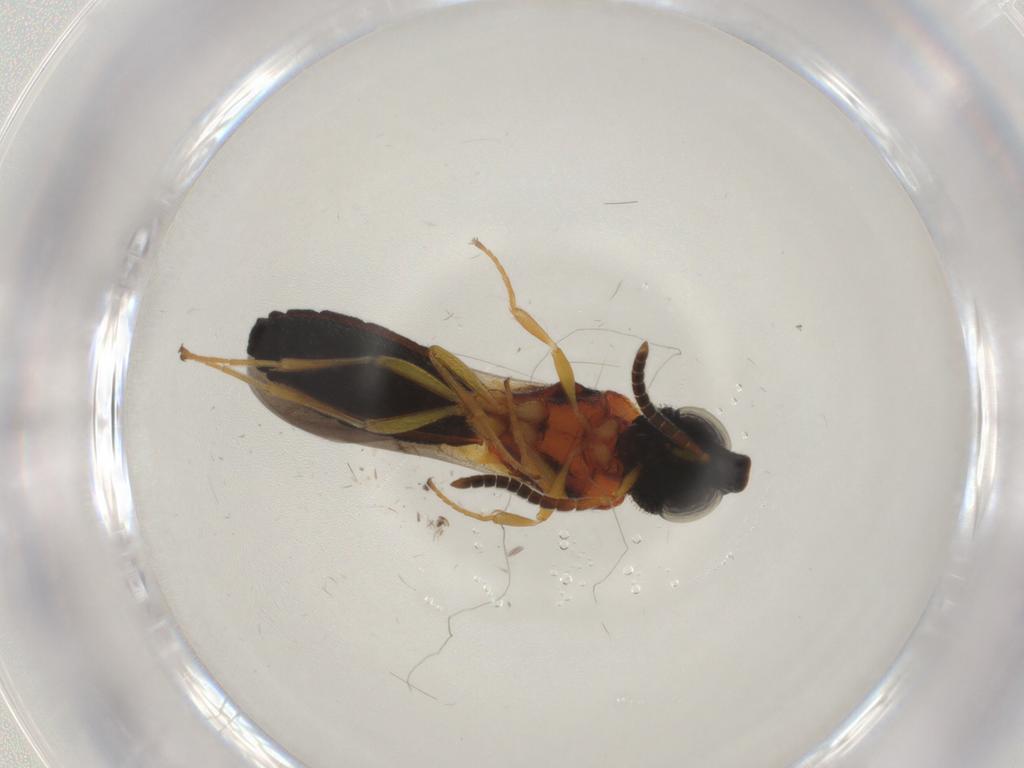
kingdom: Animalia
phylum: Arthropoda
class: Insecta
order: Hymenoptera
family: Scelionidae
